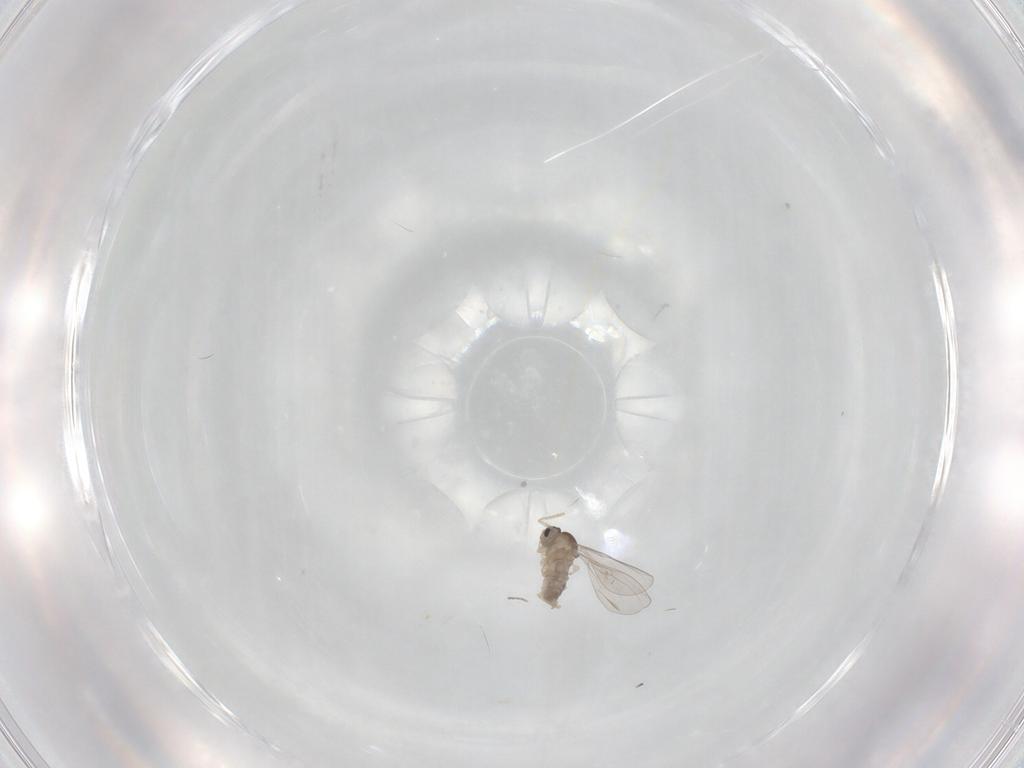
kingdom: Animalia
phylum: Arthropoda
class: Insecta
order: Diptera
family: Cecidomyiidae
